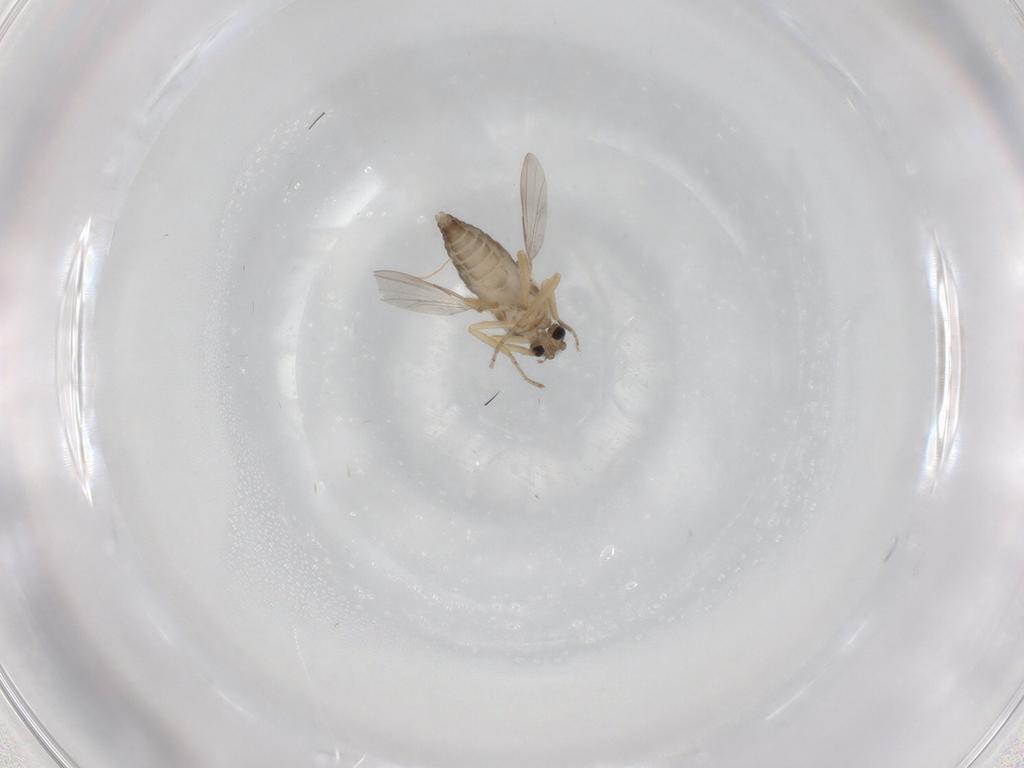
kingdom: Animalia
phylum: Arthropoda
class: Insecta
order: Diptera
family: Ceratopogonidae
